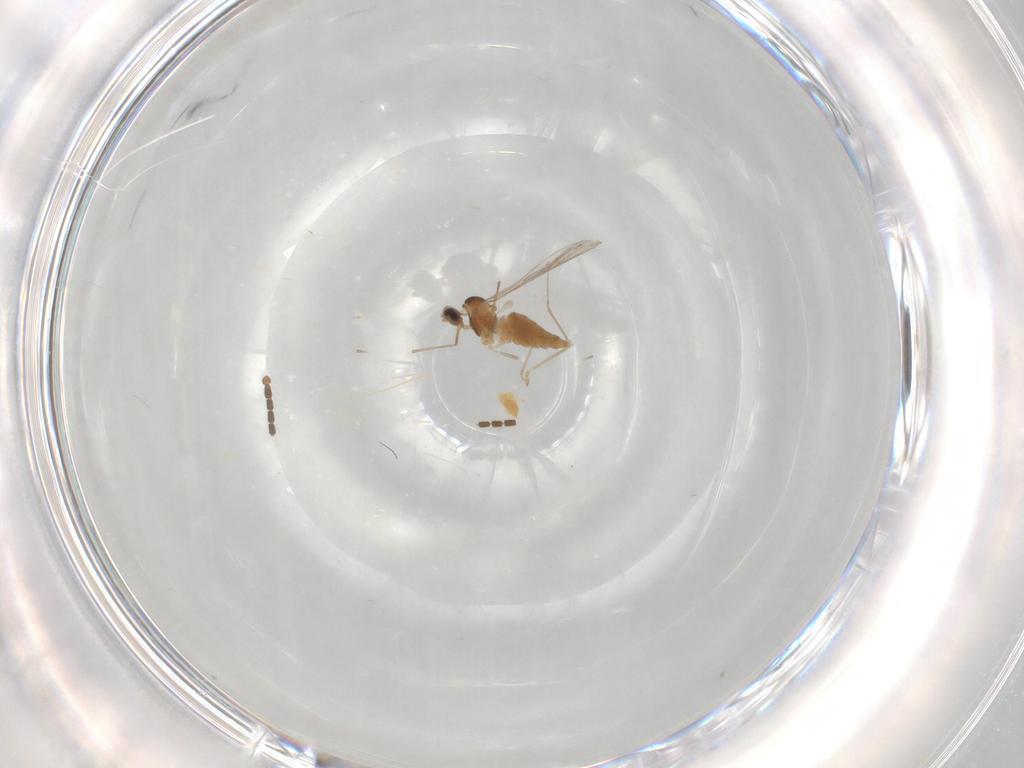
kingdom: Animalia
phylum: Arthropoda
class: Insecta
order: Diptera
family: Cecidomyiidae
